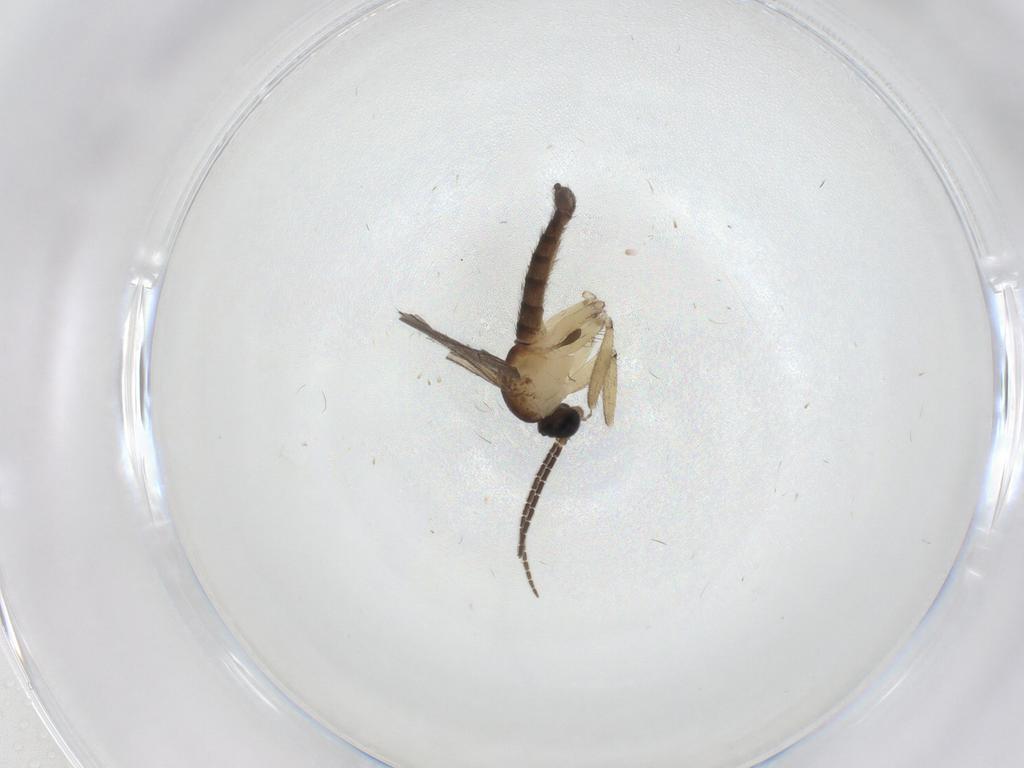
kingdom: Animalia
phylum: Arthropoda
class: Insecta
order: Diptera
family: Sciaridae
